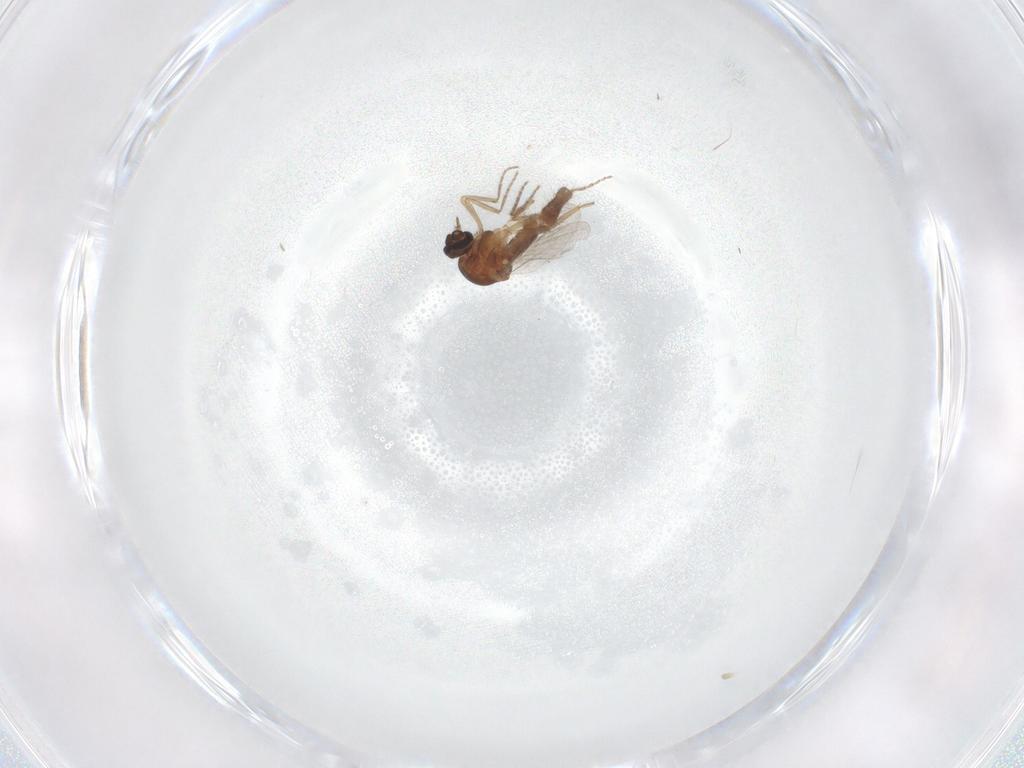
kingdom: Animalia
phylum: Arthropoda
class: Insecta
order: Diptera
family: Ceratopogonidae
